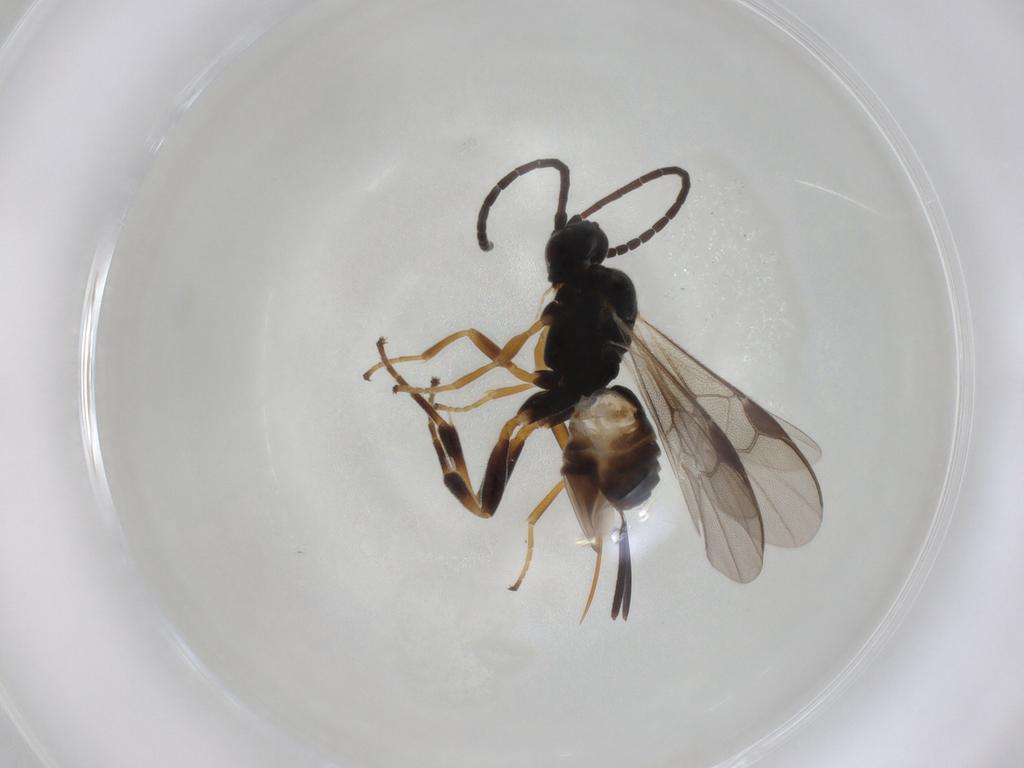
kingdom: Animalia
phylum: Arthropoda
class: Insecta
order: Hymenoptera
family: Braconidae
